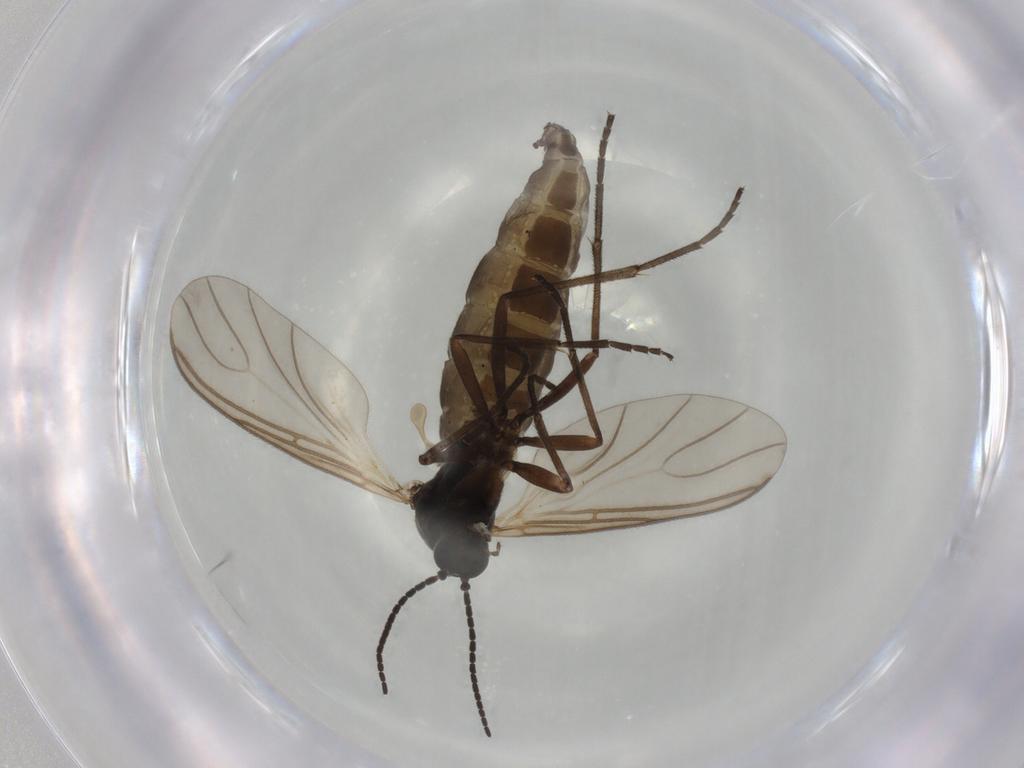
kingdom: Animalia
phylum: Arthropoda
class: Insecta
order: Diptera
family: Sciaridae
